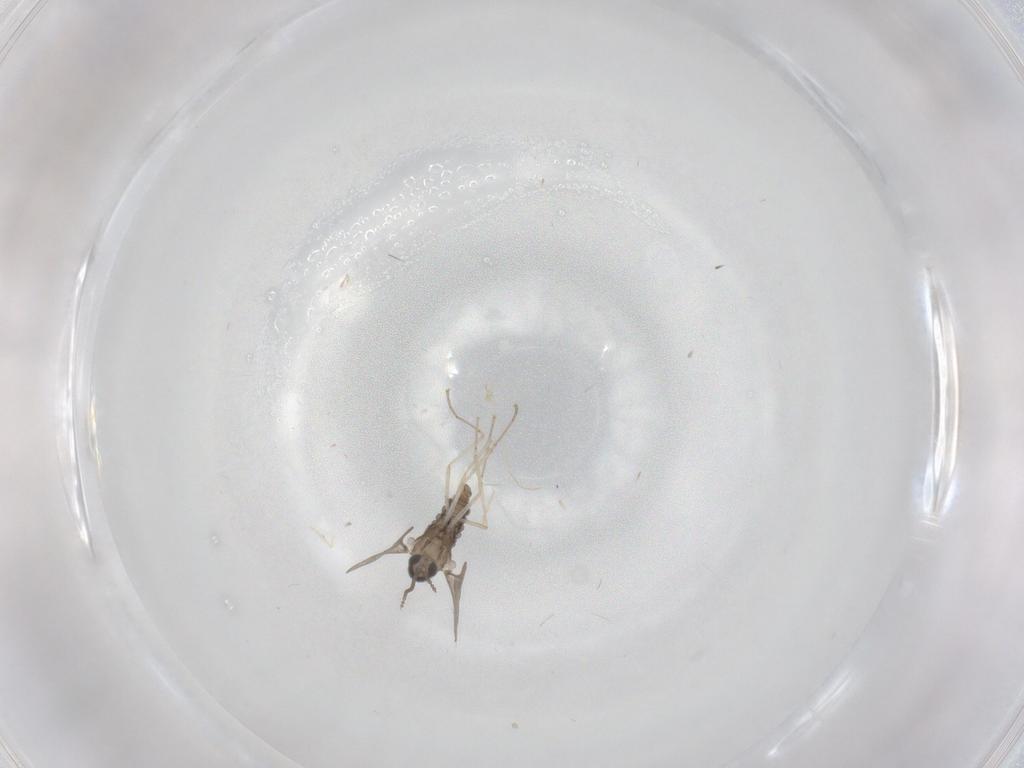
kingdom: Animalia
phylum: Arthropoda
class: Insecta
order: Diptera
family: Cecidomyiidae
